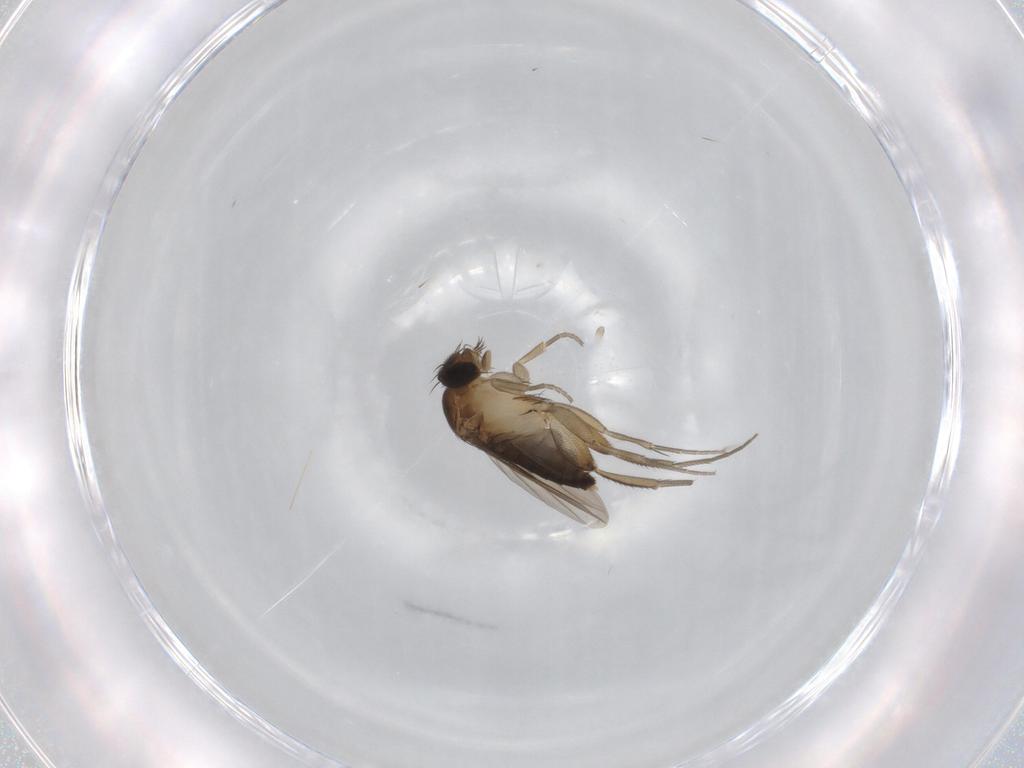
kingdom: Animalia
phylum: Arthropoda
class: Insecta
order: Diptera
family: Phoridae
